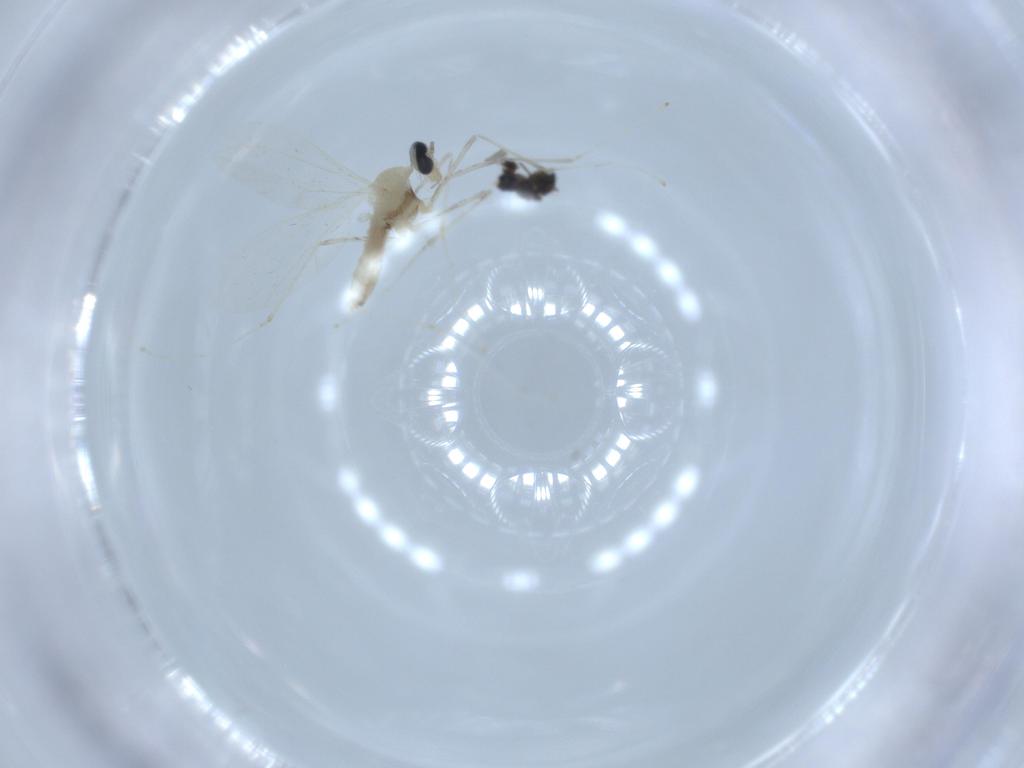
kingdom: Animalia
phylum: Arthropoda
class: Insecta
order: Diptera
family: Sciaridae
